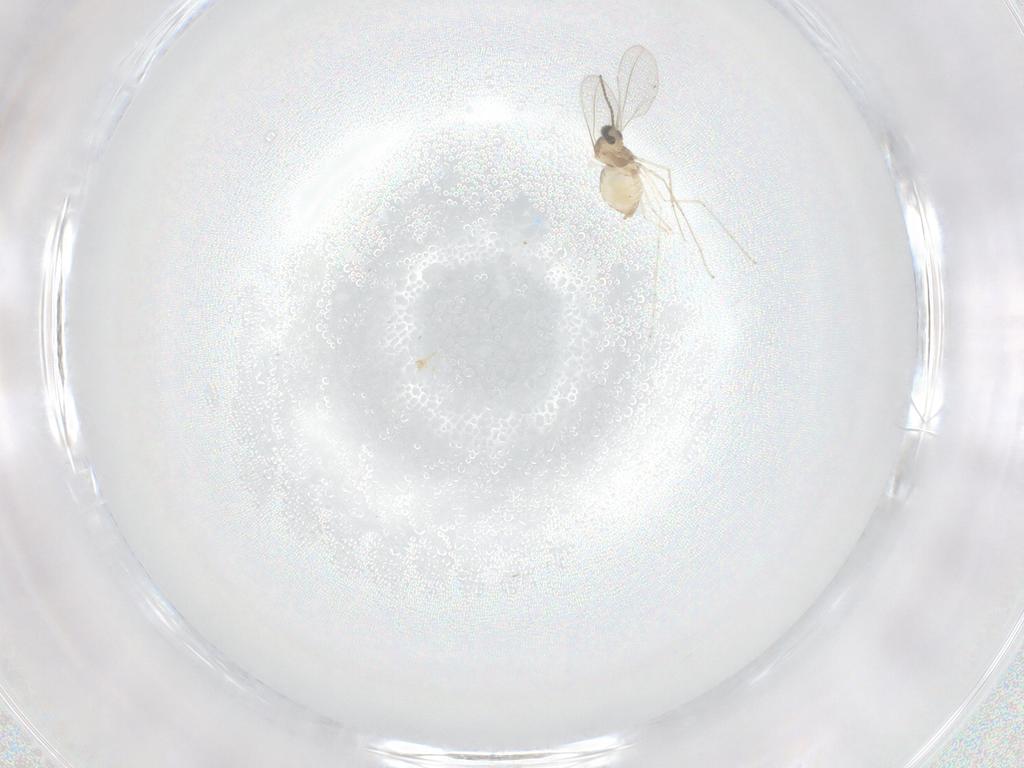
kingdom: Animalia
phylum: Arthropoda
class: Insecta
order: Diptera
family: Cecidomyiidae
